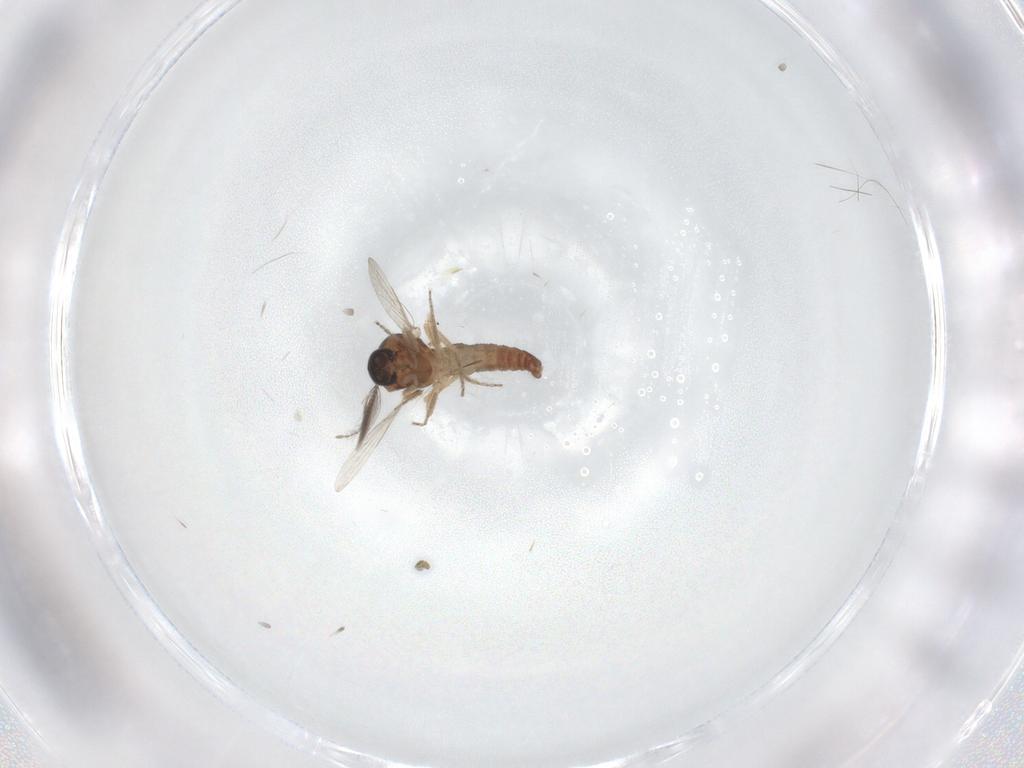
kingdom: Animalia
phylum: Arthropoda
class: Insecta
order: Diptera
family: Ceratopogonidae
